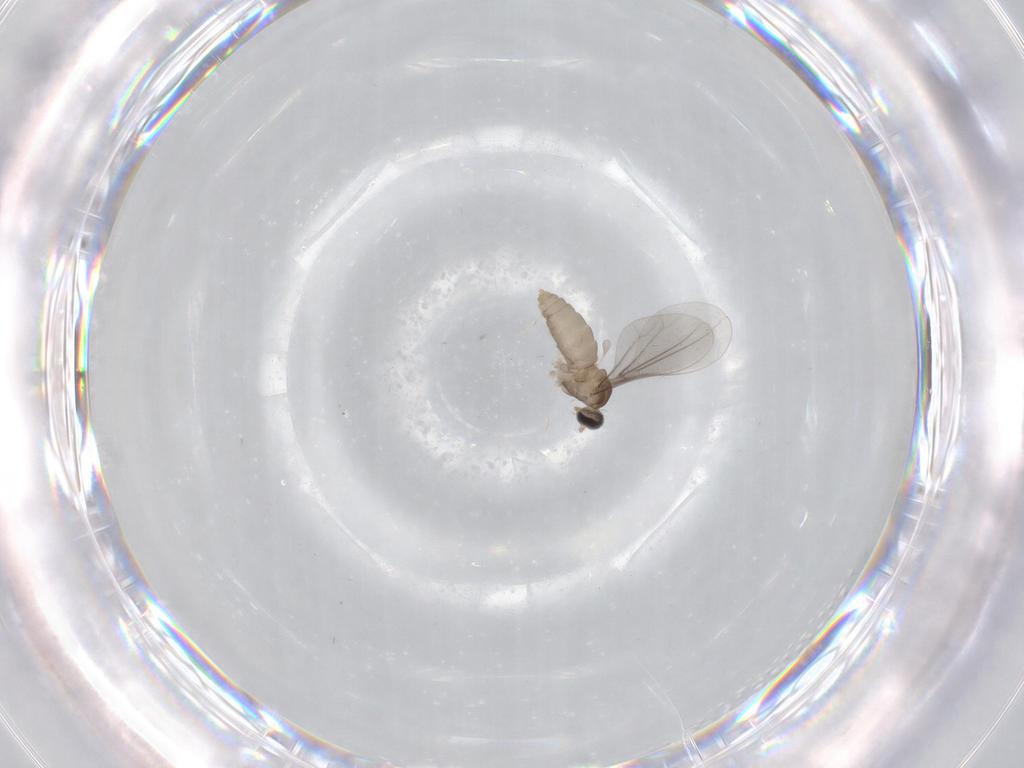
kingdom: Animalia
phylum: Arthropoda
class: Insecta
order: Diptera
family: Cecidomyiidae
